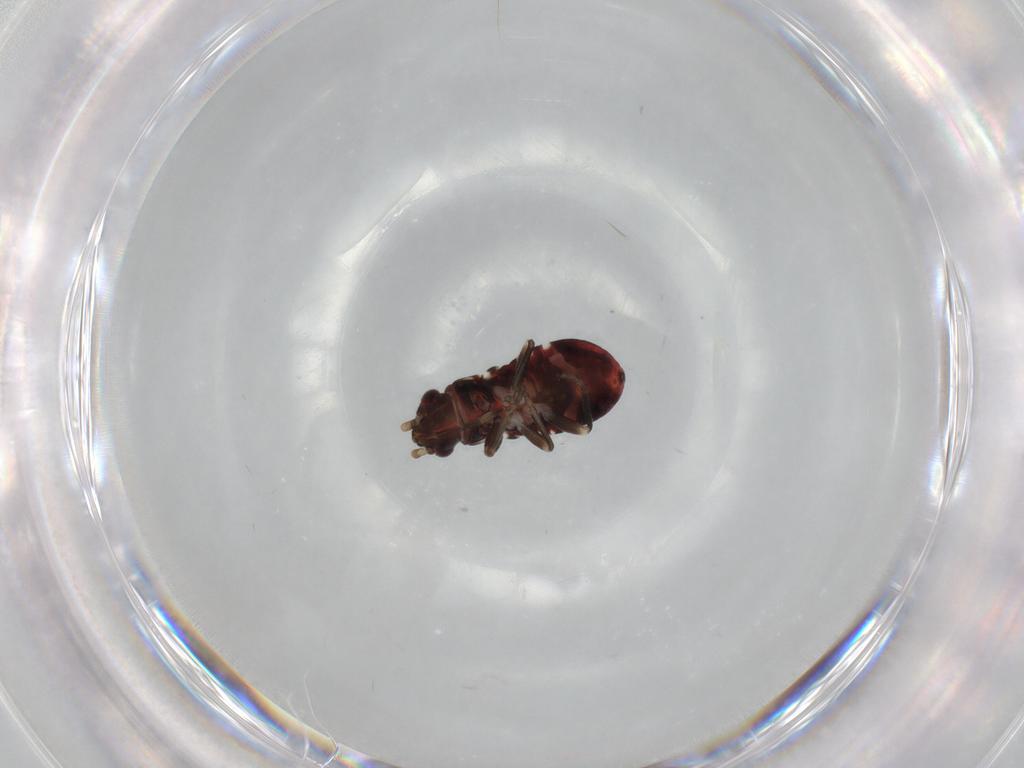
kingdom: Animalia
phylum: Arthropoda
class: Insecta
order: Hemiptera
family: Rhyparochromidae
